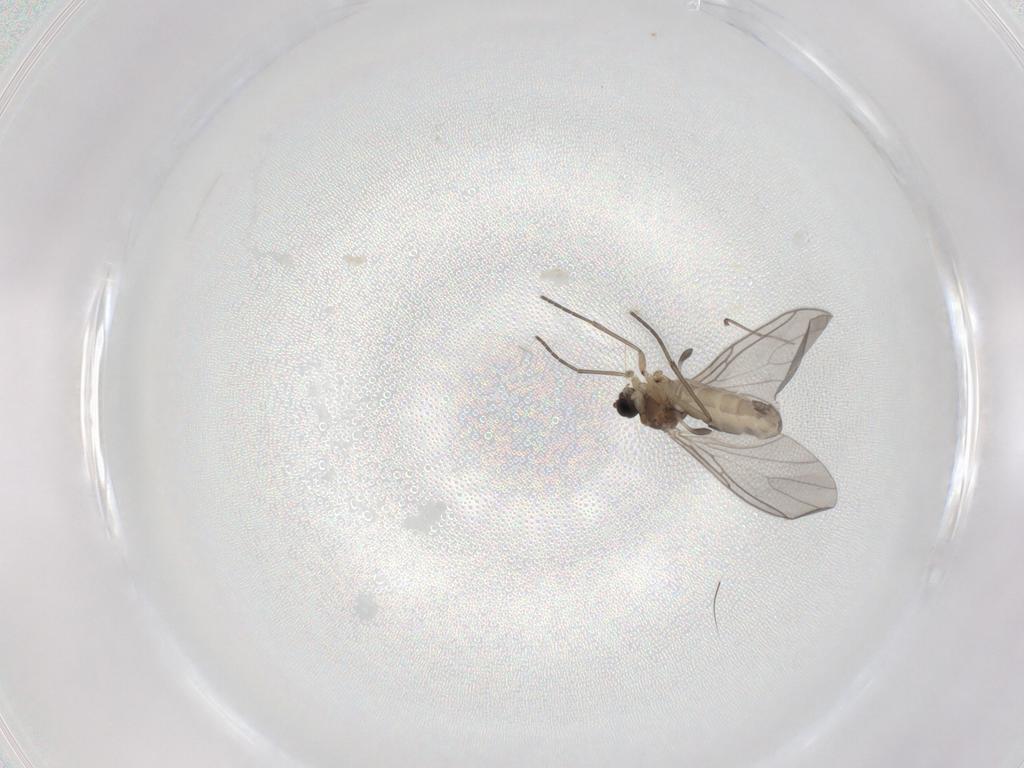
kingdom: Animalia
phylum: Arthropoda
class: Insecta
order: Diptera
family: Sciaridae
